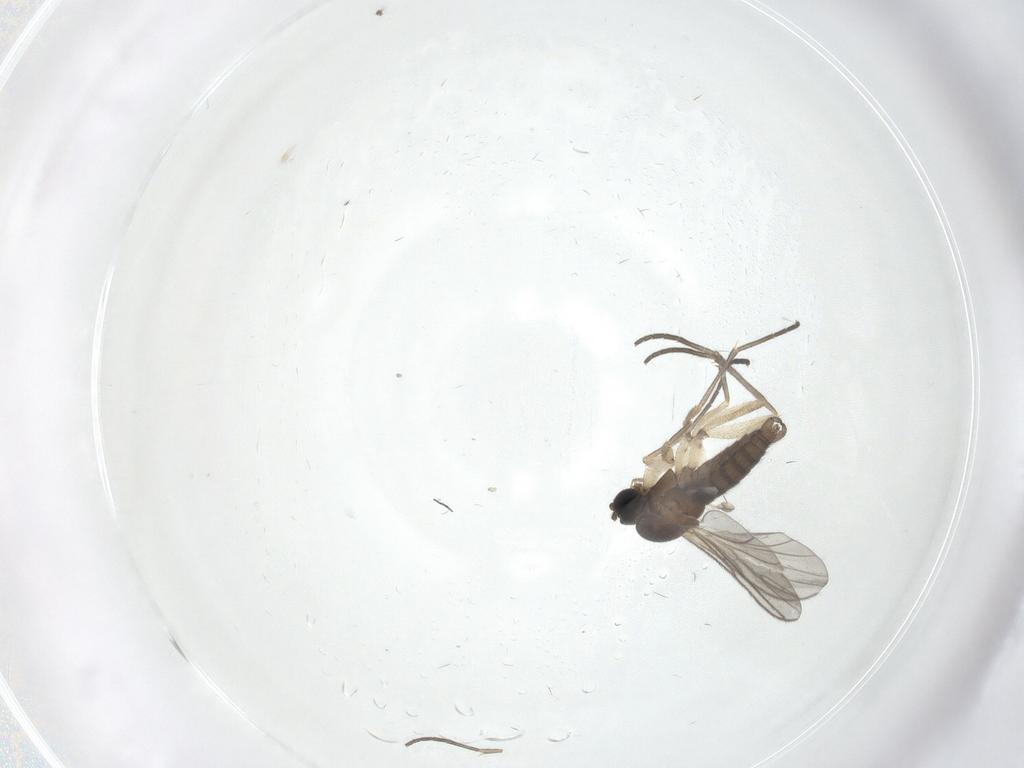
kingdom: Animalia
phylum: Arthropoda
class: Insecta
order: Diptera
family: Sciaridae
